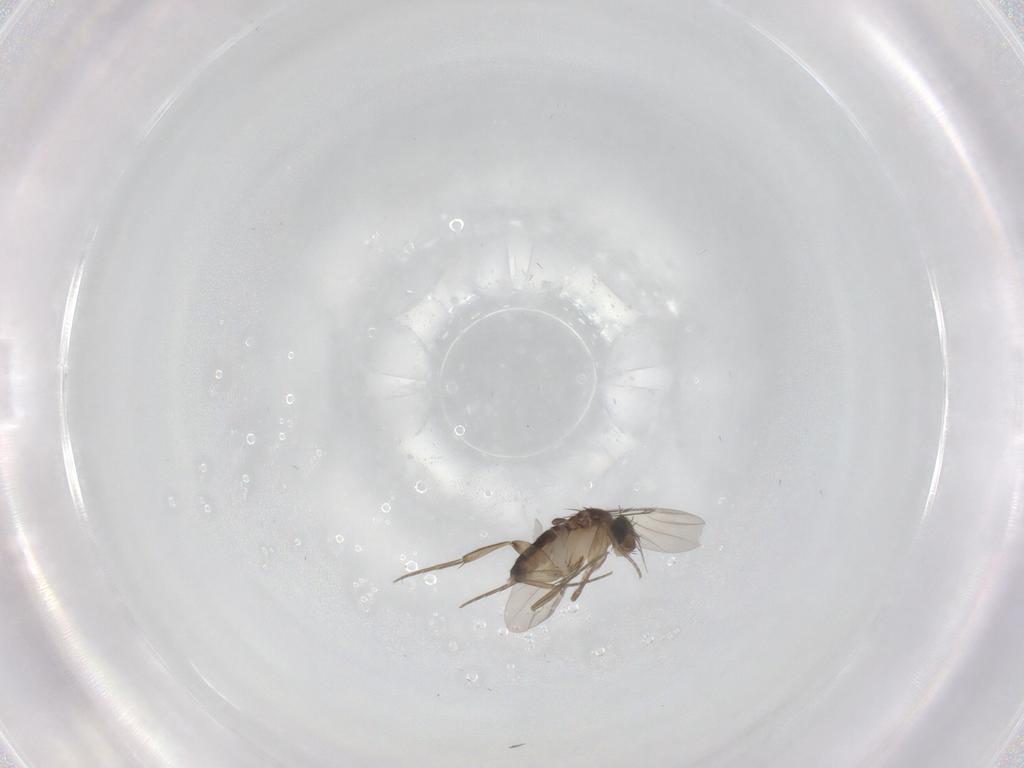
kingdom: Animalia
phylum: Arthropoda
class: Insecta
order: Diptera
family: Phoridae
